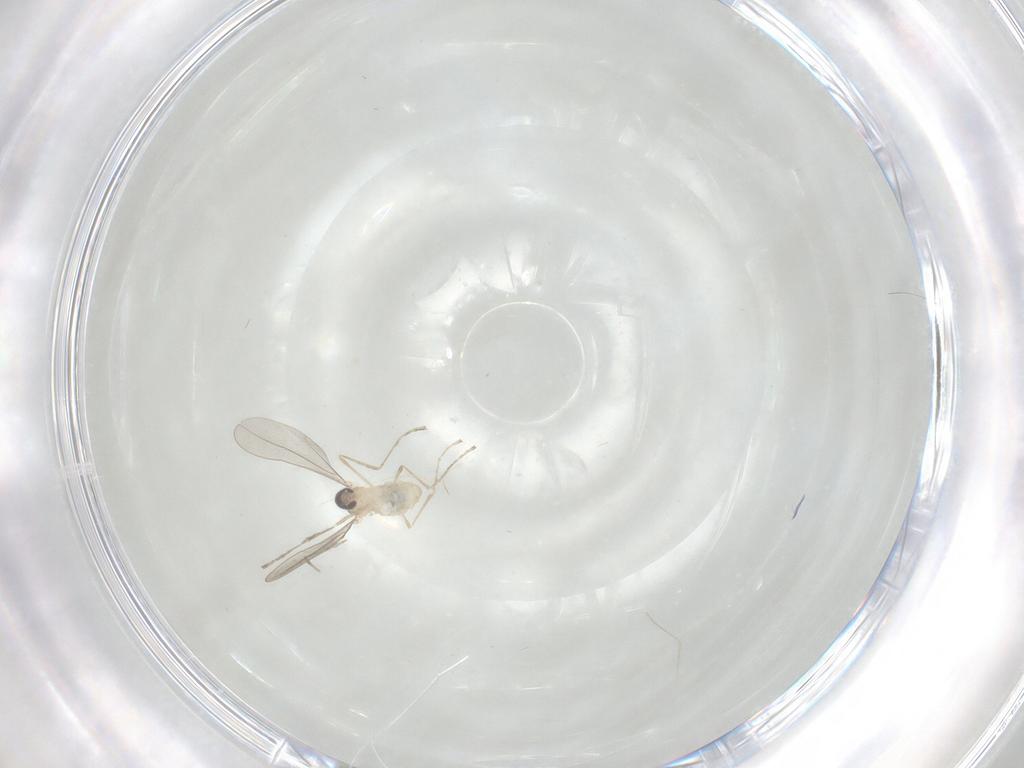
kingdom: Animalia
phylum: Arthropoda
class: Insecta
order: Diptera
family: Cecidomyiidae
